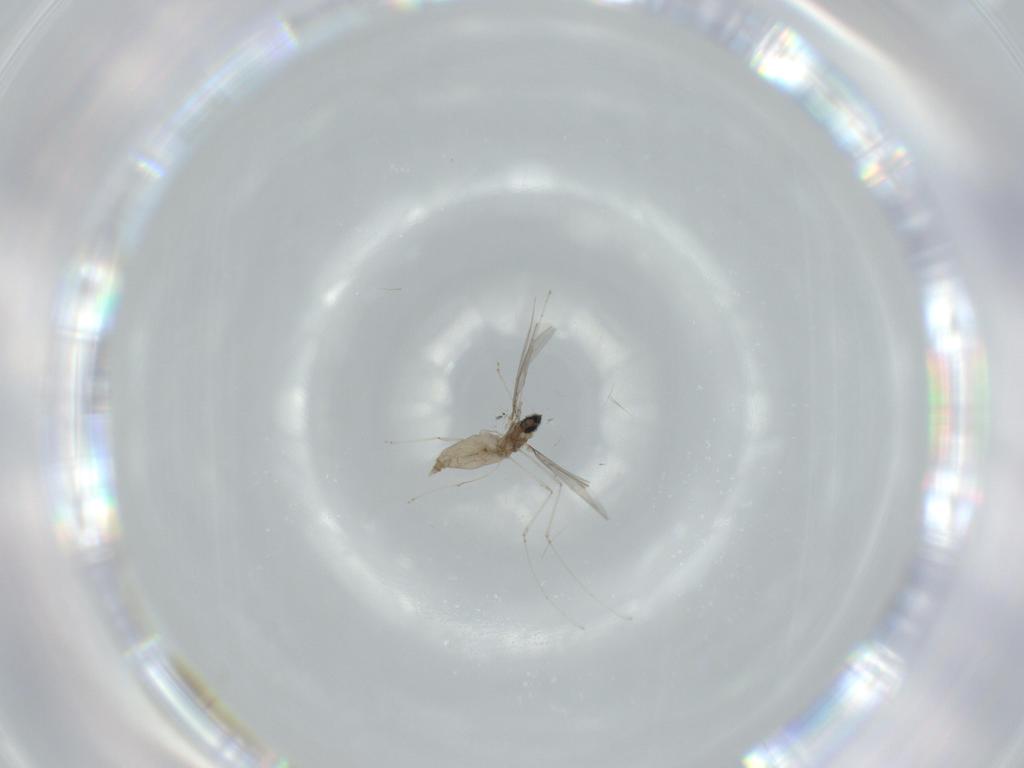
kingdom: Animalia
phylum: Arthropoda
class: Insecta
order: Diptera
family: Cecidomyiidae
